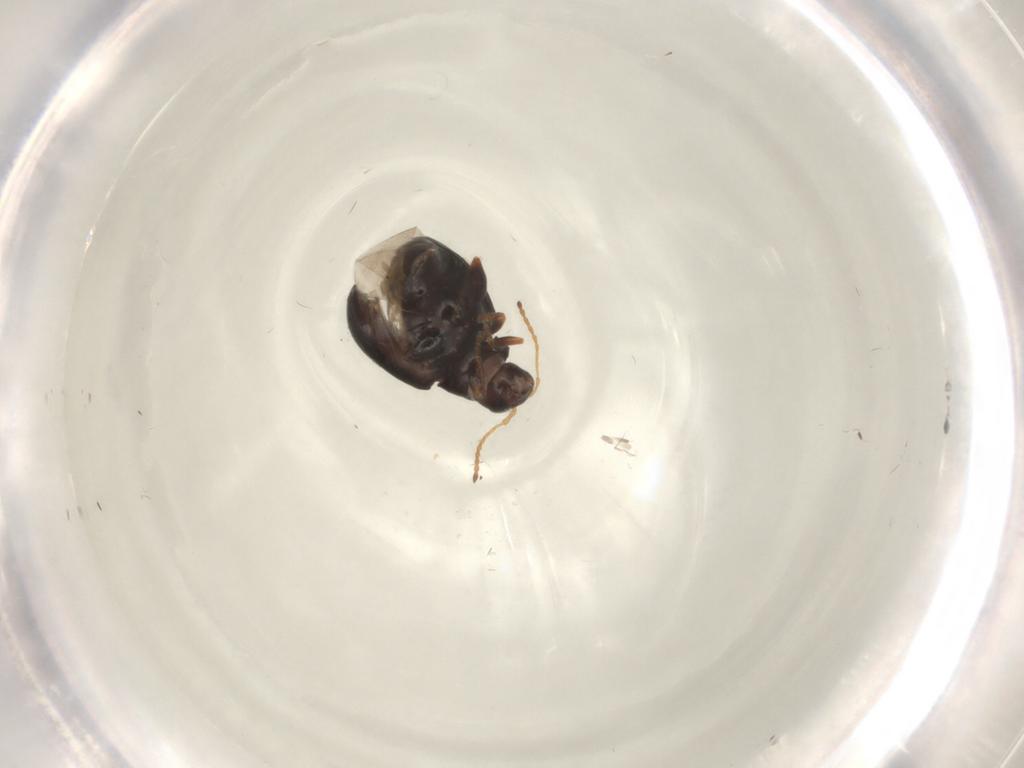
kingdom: Animalia
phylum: Arthropoda
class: Insecta
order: Coleoptera
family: Chrysomelidae
